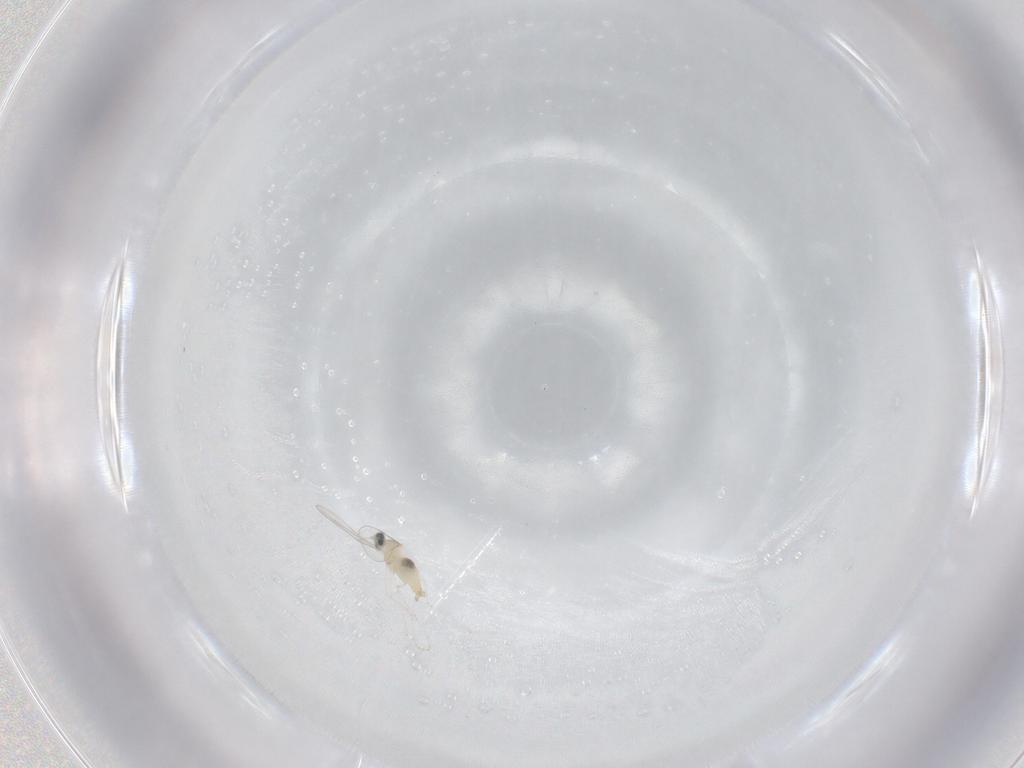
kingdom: Animalia
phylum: Arthropoda
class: Insecta
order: Diptera
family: Cecidomyiidae
